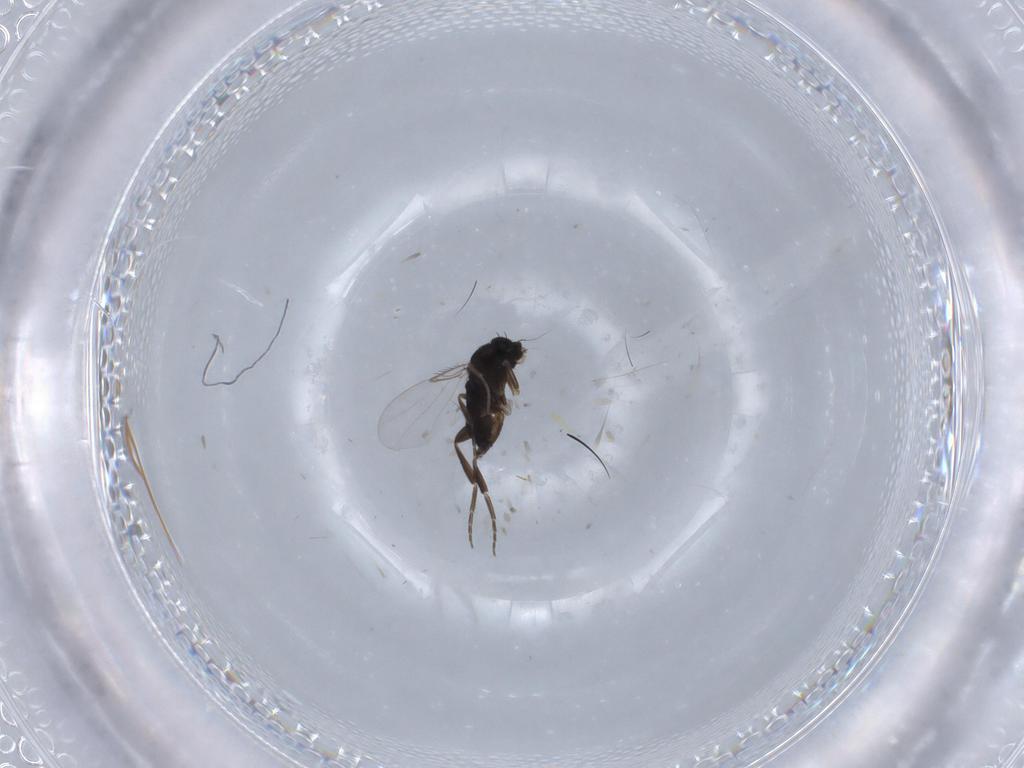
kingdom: Animalia
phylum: Arthropoda
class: Insecta
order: Diptera
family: Phoridae
